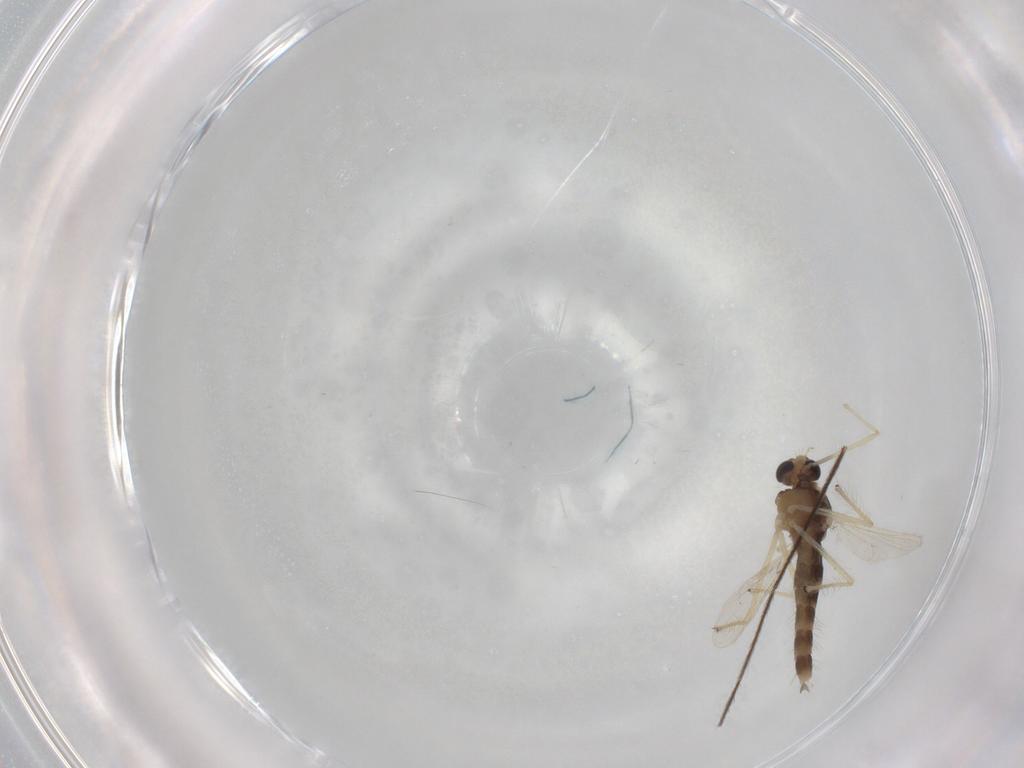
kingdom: Animalia
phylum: Arthropoda
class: Insecta
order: Diptera
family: Chironomidae
